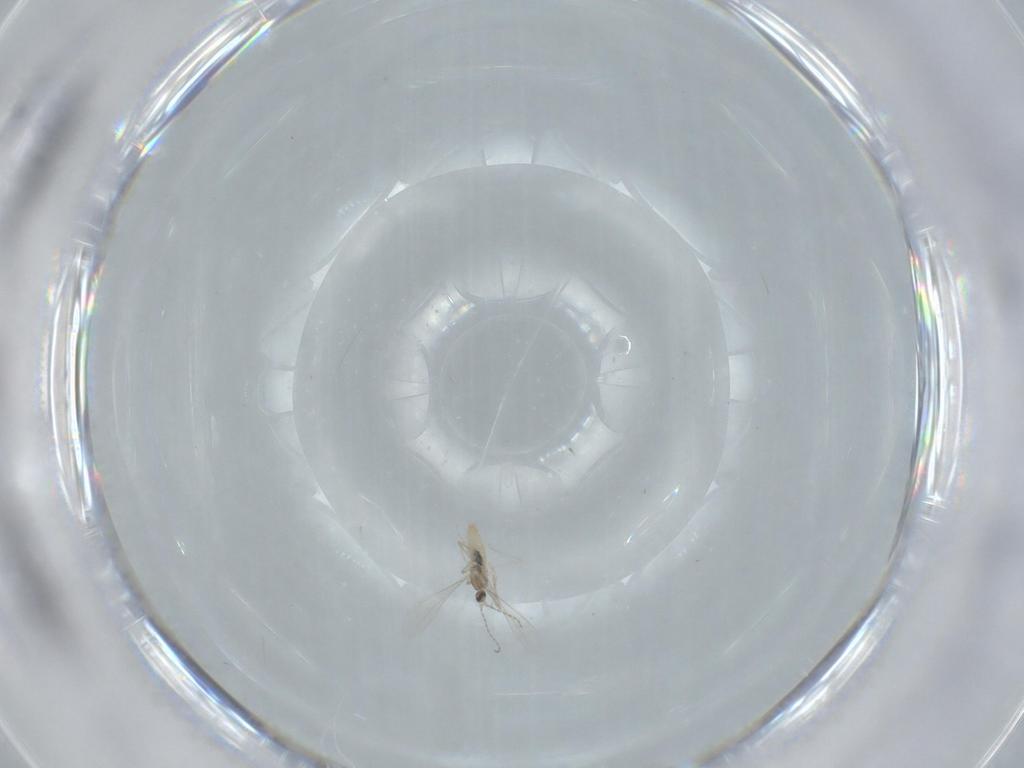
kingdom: Animalia
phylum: Arthropoda
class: Insecta
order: Diptera
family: Cecidomyiidae
